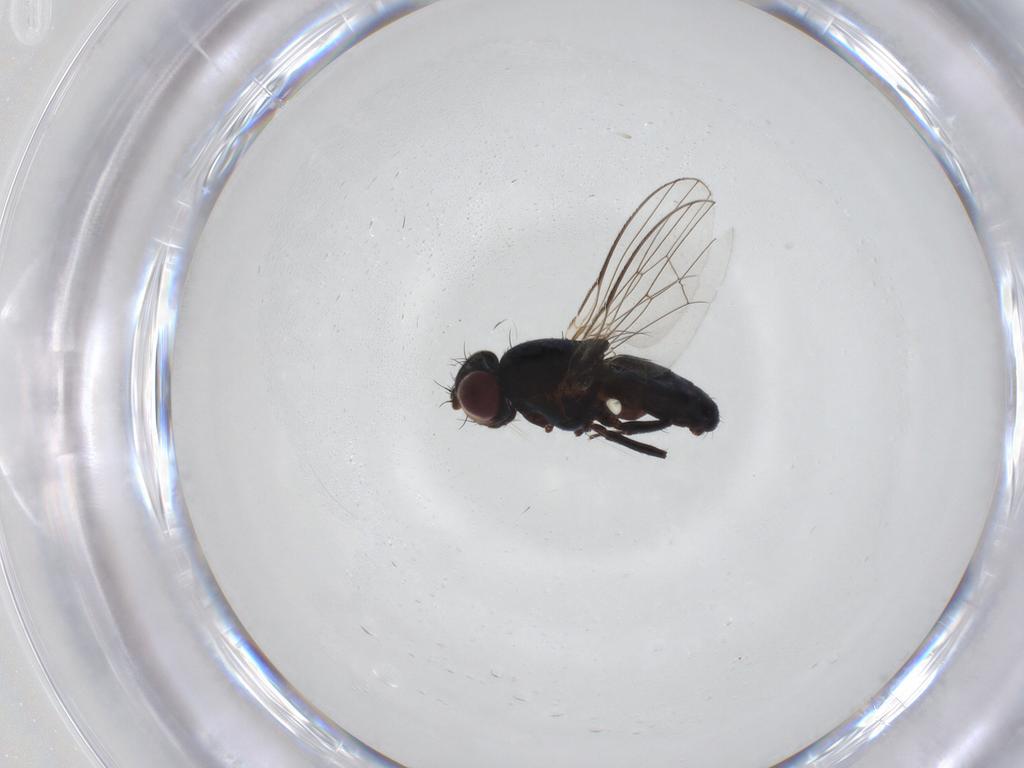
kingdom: Animalia
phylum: Arthropoda
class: Insecta
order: Diptera
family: Carnidae
